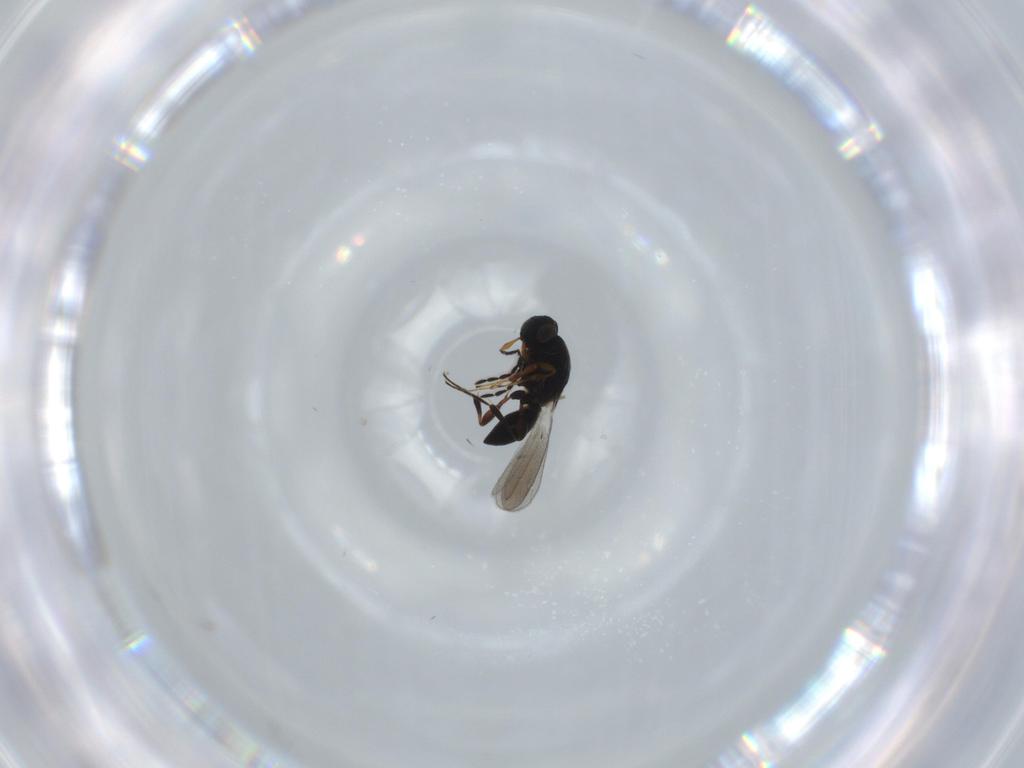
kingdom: Animalia
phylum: Arthropoda
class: Insecta
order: Hymenoptera
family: Platygastridae
